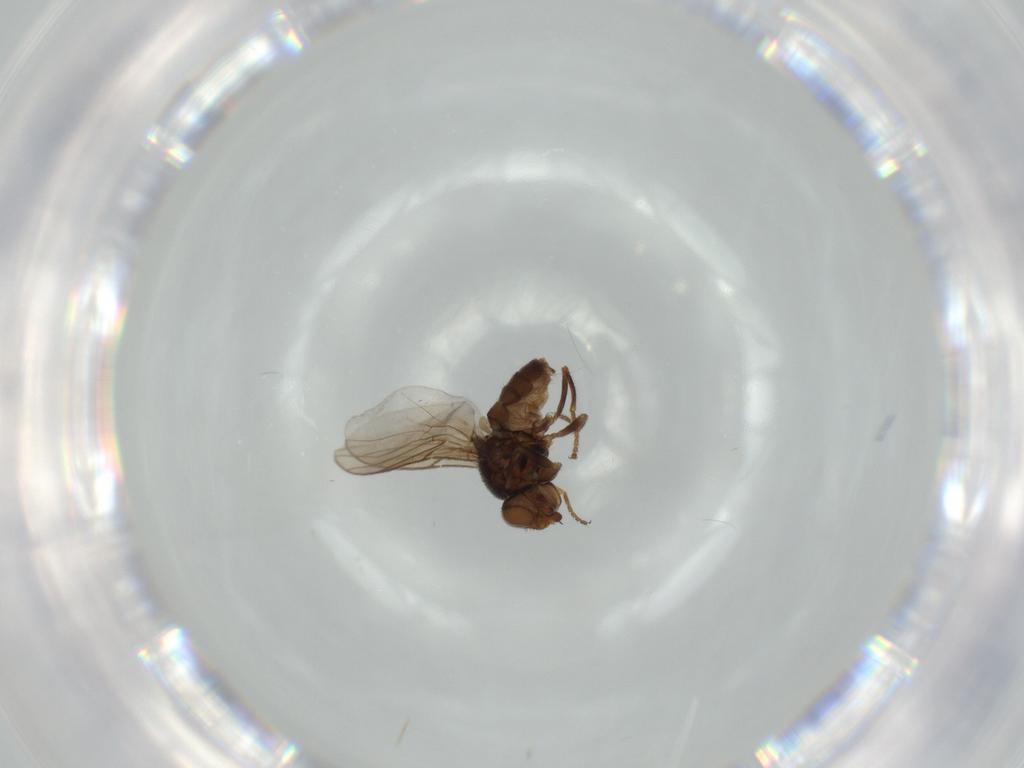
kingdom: Animalia
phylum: Arthropoda
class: Insecta
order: Diptera
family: Chloropidae
